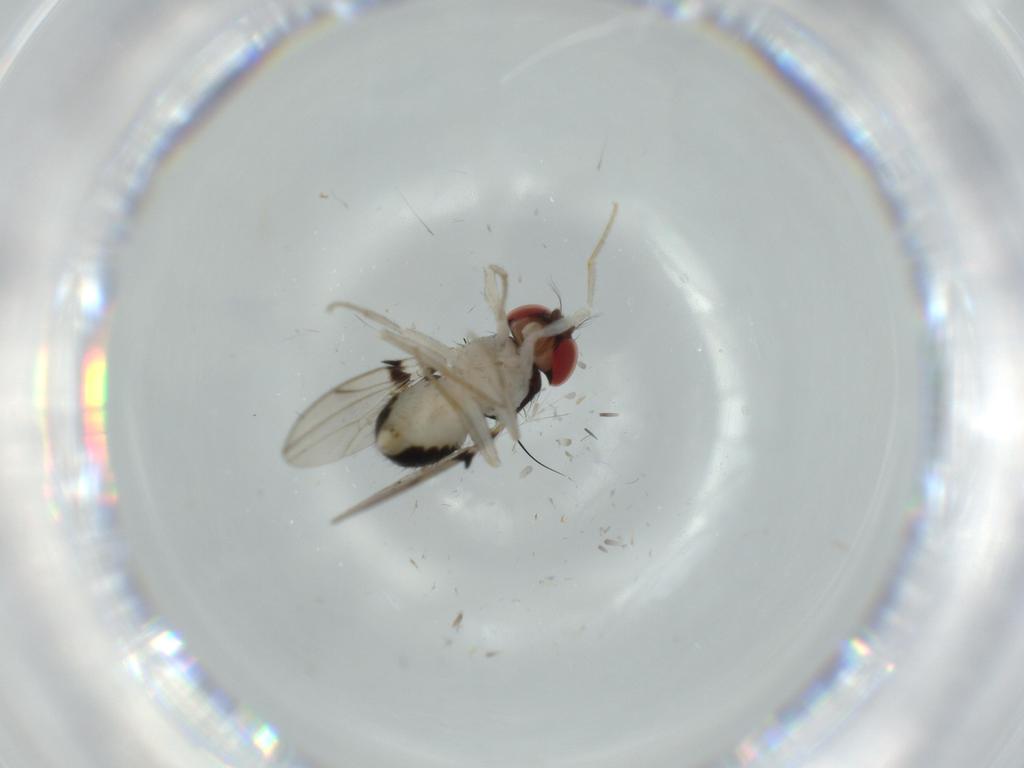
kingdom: Animalia
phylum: Arthropoda
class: Insecta
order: Diptera
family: Drosophilidae
